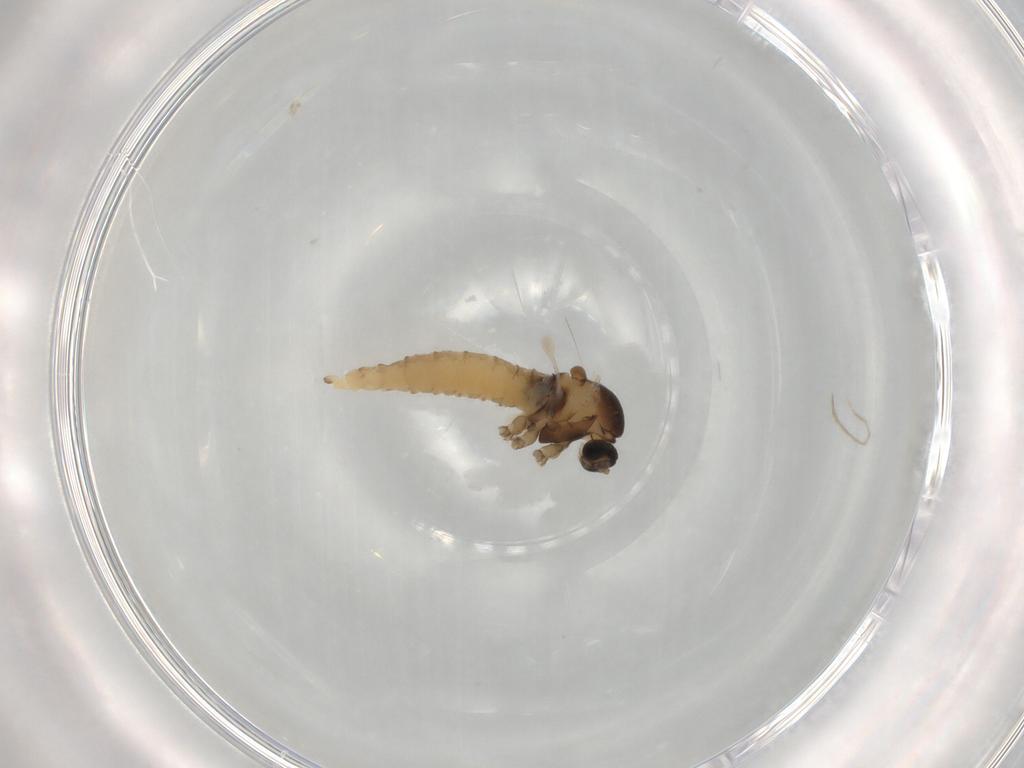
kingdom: Animalia
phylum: Arthropoda
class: Insecta
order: Diptera
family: Cecidomyiidae
